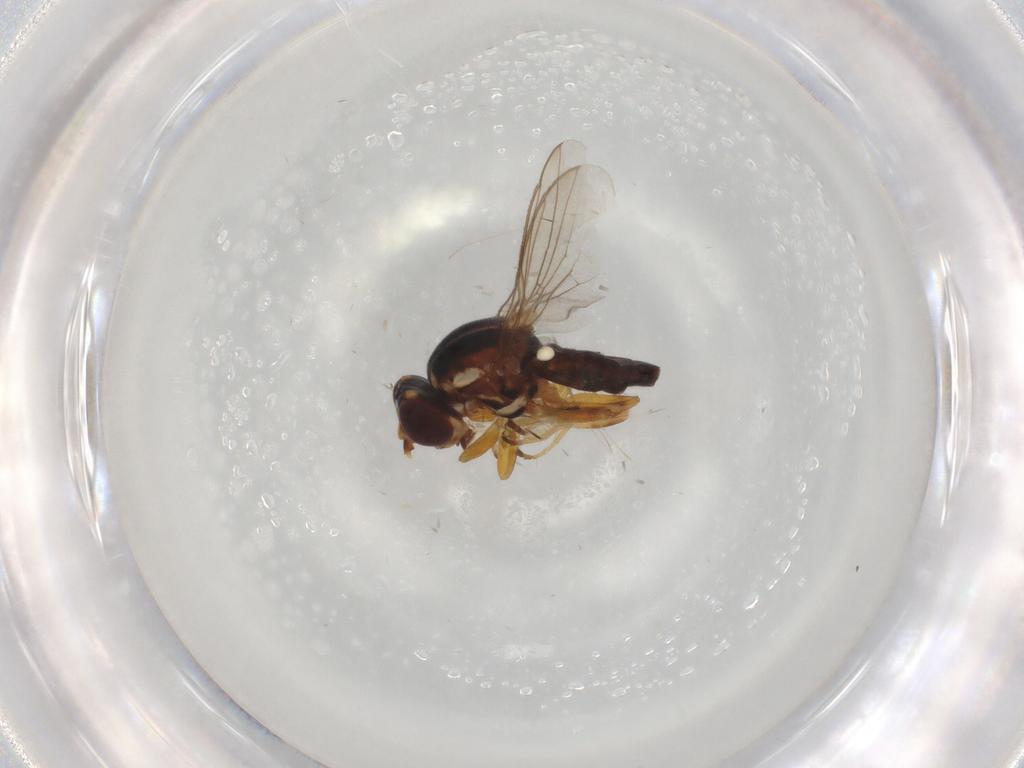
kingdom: Animalia
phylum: Arthropoda
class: Insecta
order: Diptera
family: Chloropidae
